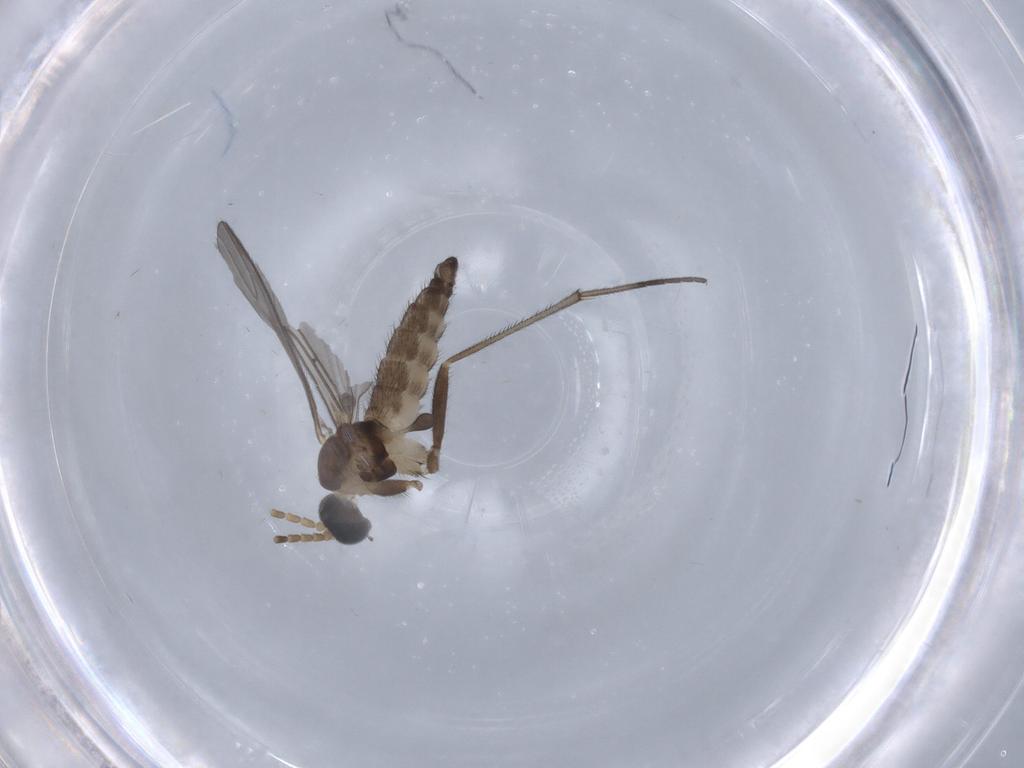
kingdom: Animalia
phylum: Arthropoda
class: Insecta
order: Diptera
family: Sciaridae
